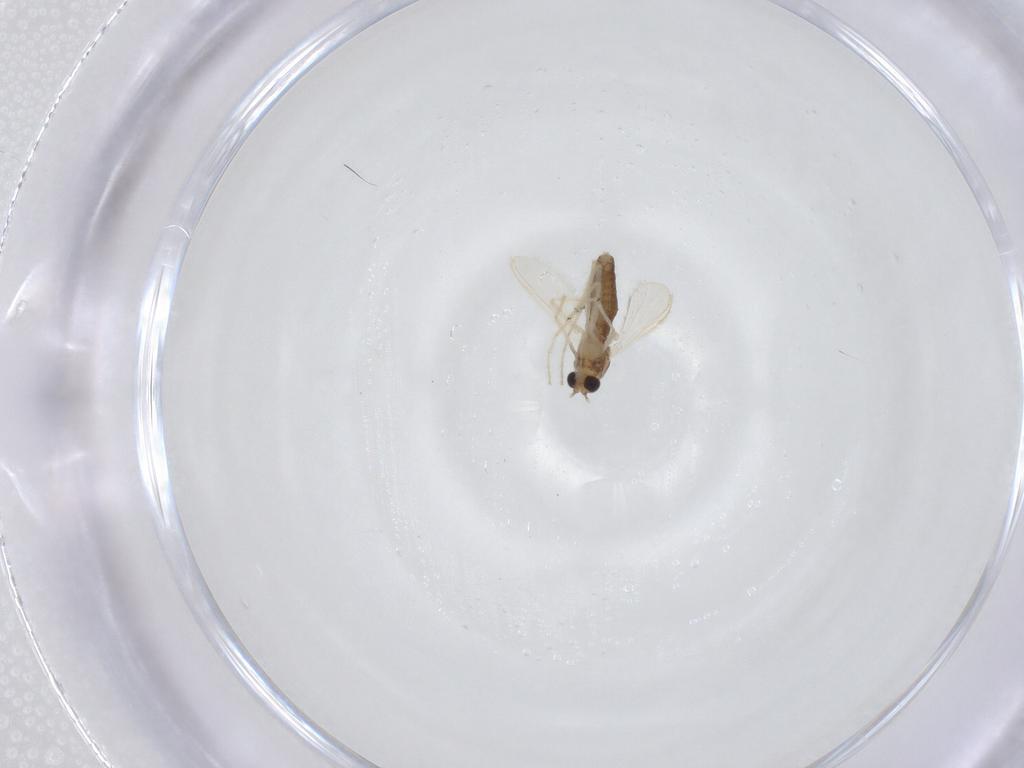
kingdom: Animalia
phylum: Arthropoda
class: Insecta
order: Diptera
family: Chironomidae
